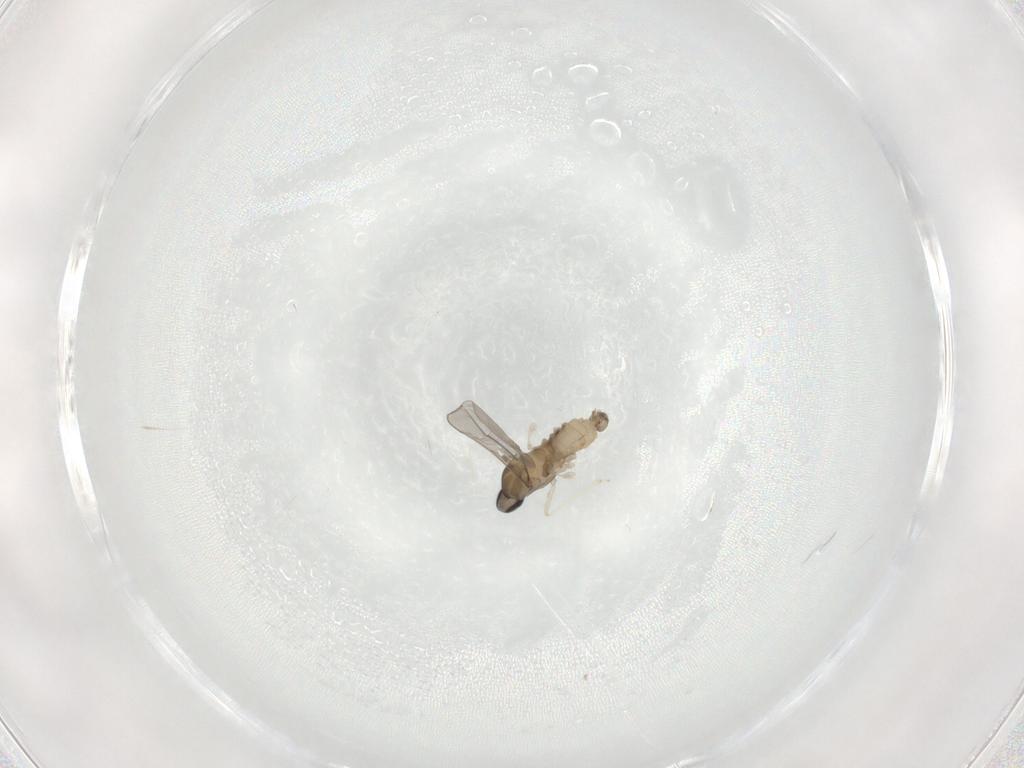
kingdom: Animalia
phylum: Arthropoda
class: Insecta
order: Diptera
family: Cecidomyiidae
